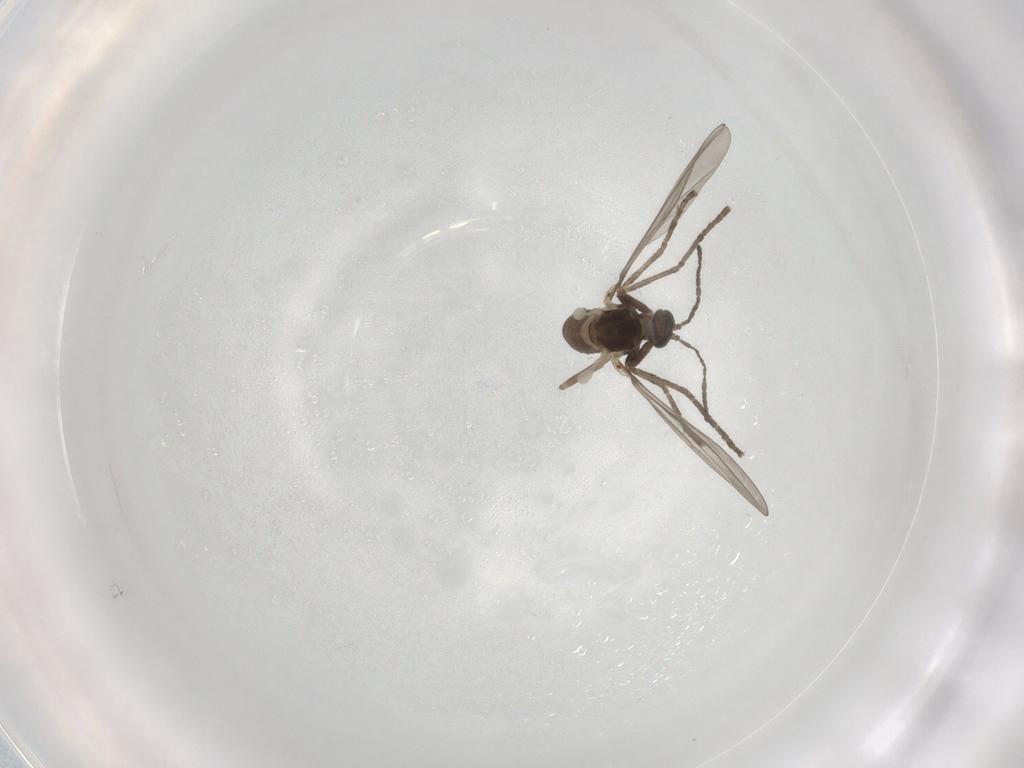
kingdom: Animalia
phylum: Arthropoda
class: Insecta
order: Diptera
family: Cecidomyiidae
